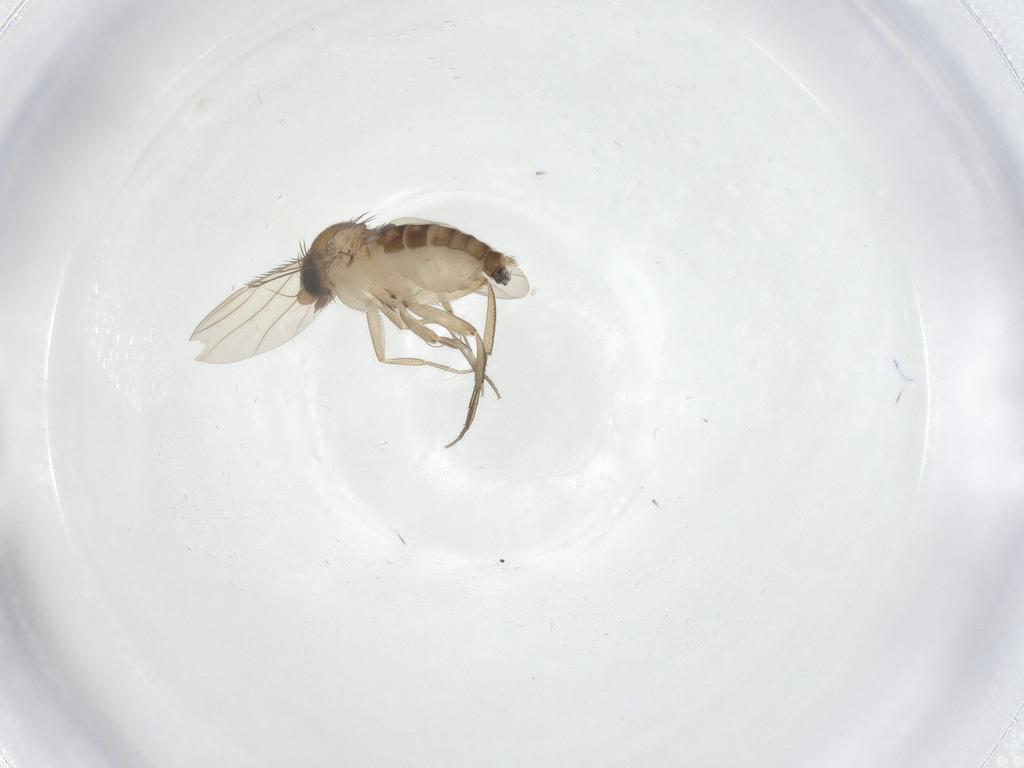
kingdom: Animalia
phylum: Arthropoda
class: Insecta
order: Diptera
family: Phoridae
